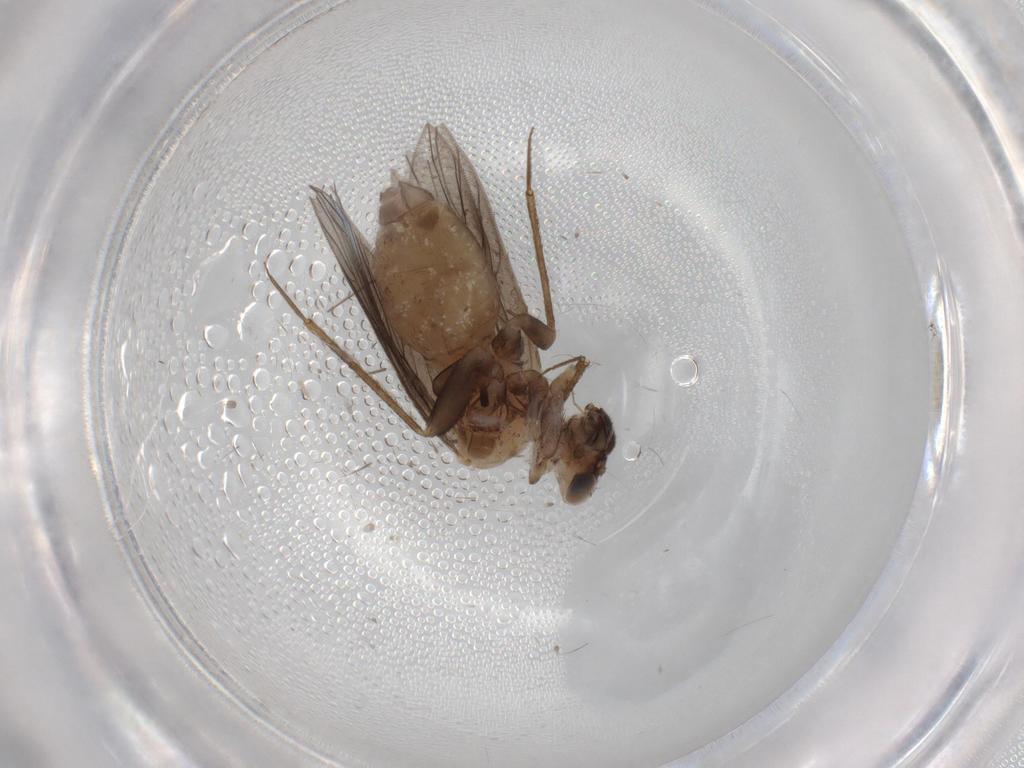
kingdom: Animalia
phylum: Arthropoda
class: Insecta
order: Psocodea
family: Lepidopsocidae
